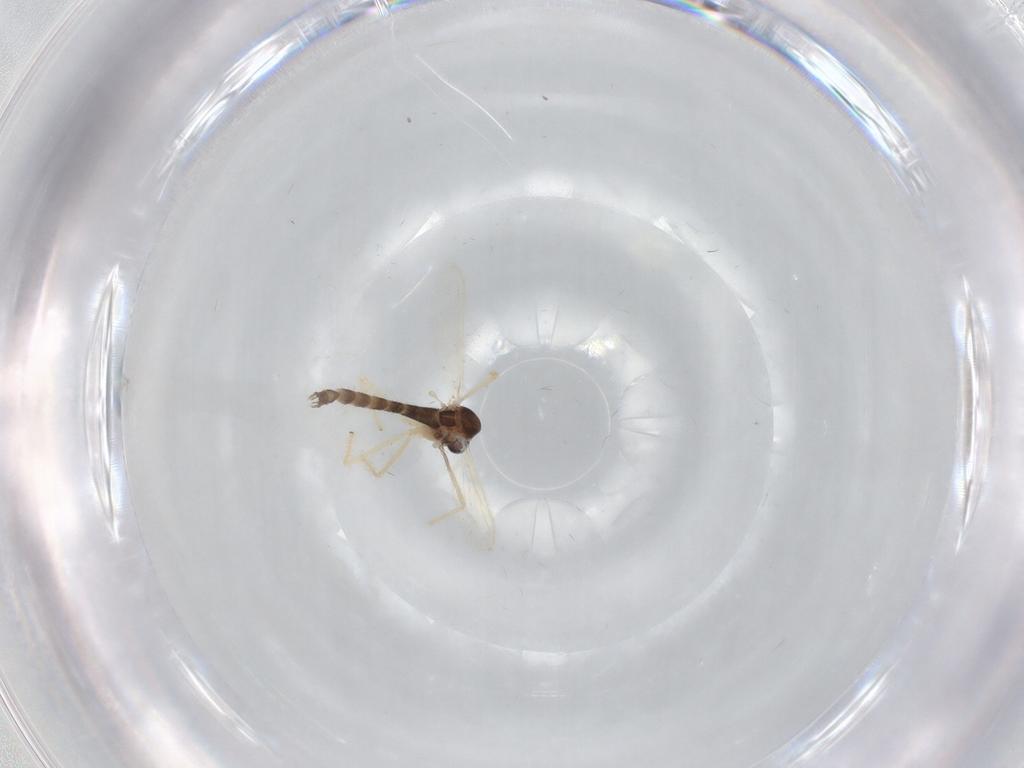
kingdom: Animalia
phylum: Arthropoda
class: Insecta
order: Diptera
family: Chironomidae
